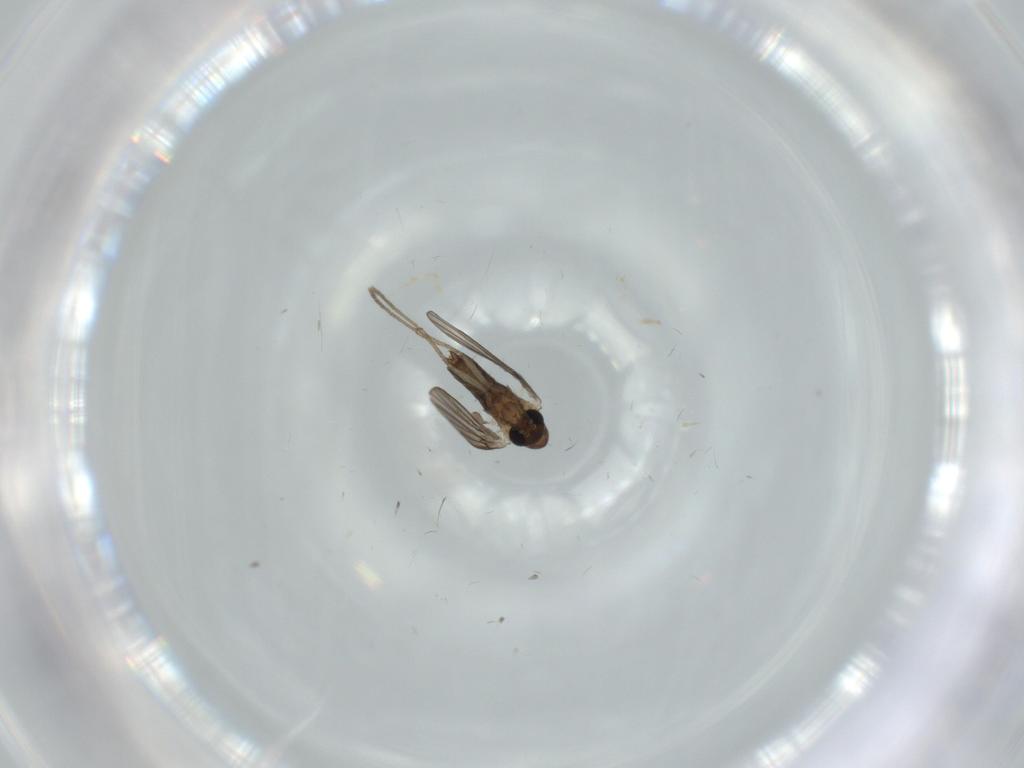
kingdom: Animalia
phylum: Arthropoda
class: Insecta
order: Diptera
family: Psychodidae
